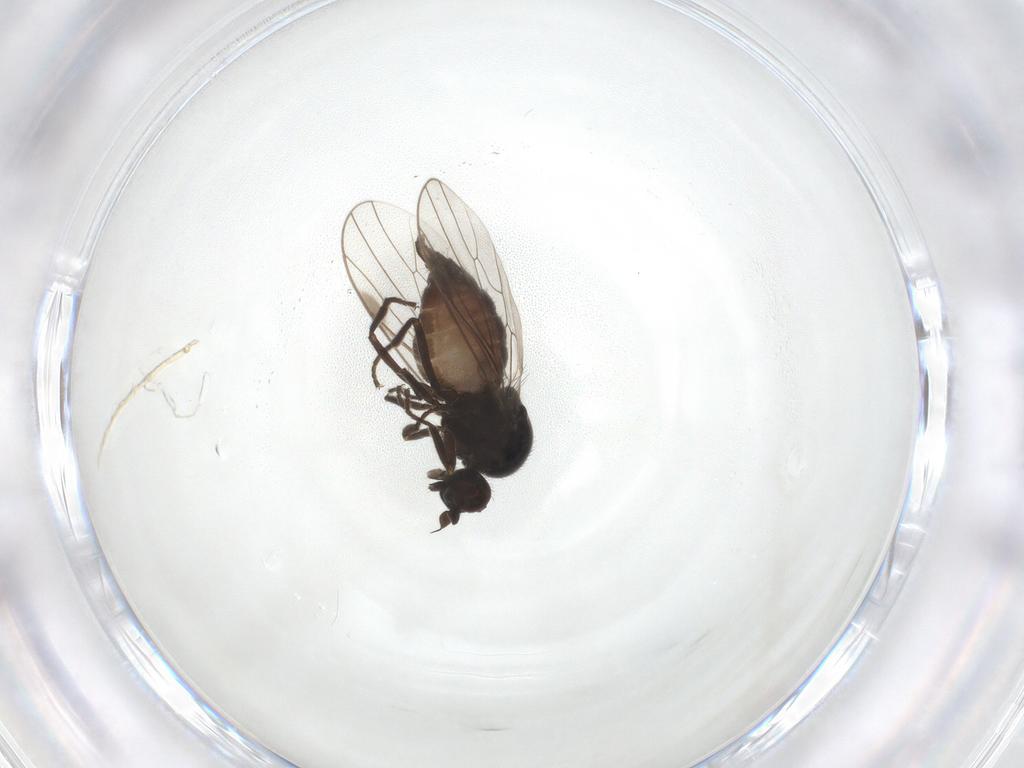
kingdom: Animalia
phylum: Arthropoda
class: Insecta
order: Diptera
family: Hybotidae
